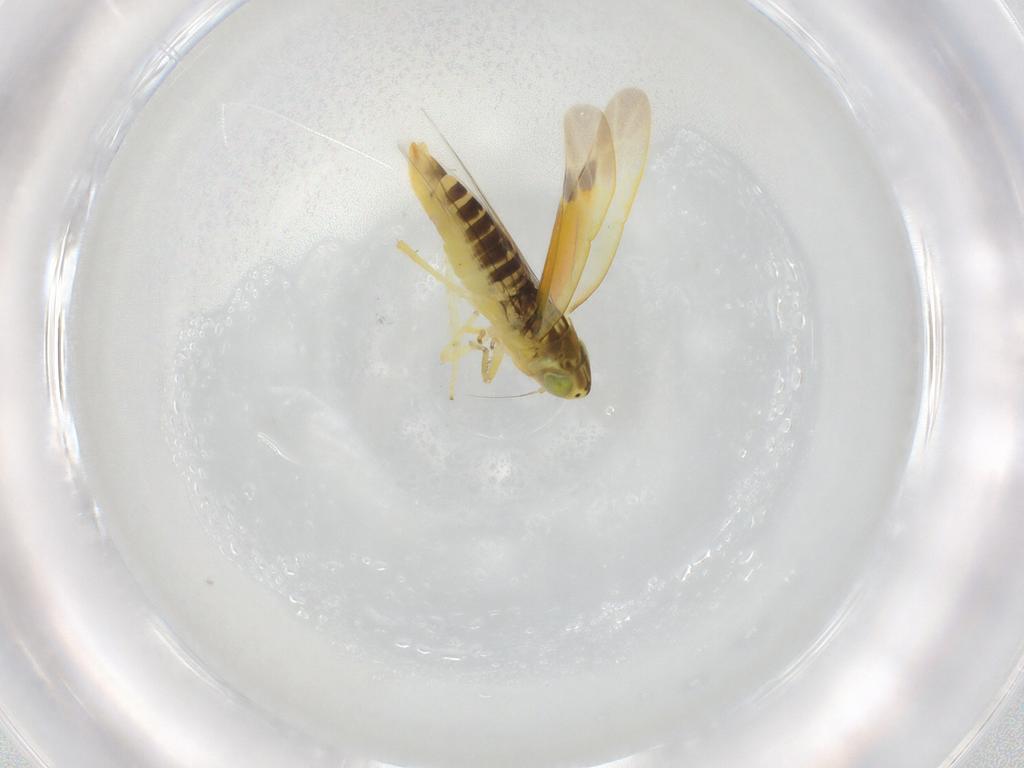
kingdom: Animalia
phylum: Arthropoda
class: Insecta
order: Hemiptera
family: Cicadellidae
